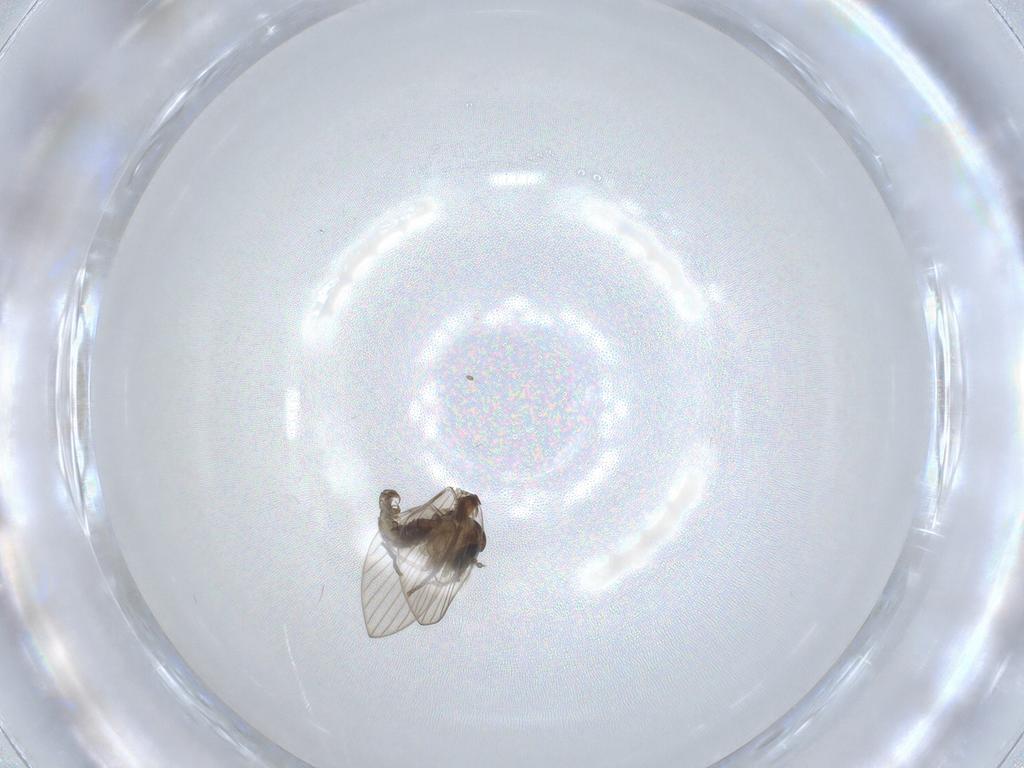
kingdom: Animalia
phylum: Arthropoda
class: Insecta
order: Diptera
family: Psychodidae
